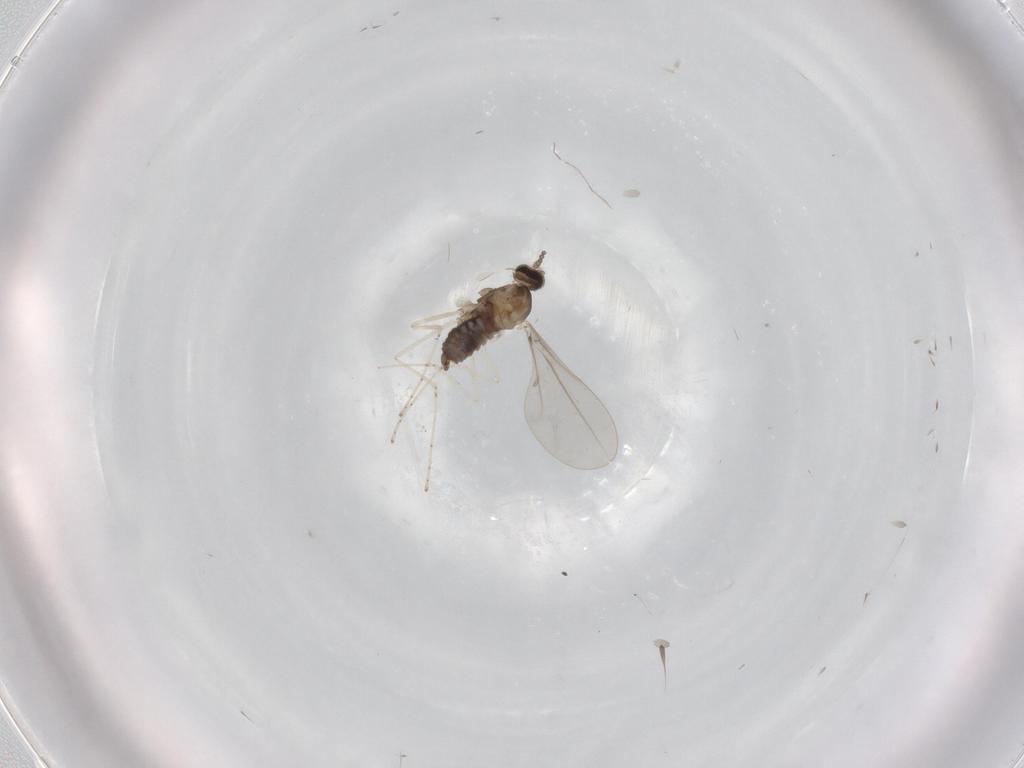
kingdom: Animalia
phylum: Arthropoda
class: Insecta
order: Diptera
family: Cecidomyiidae
